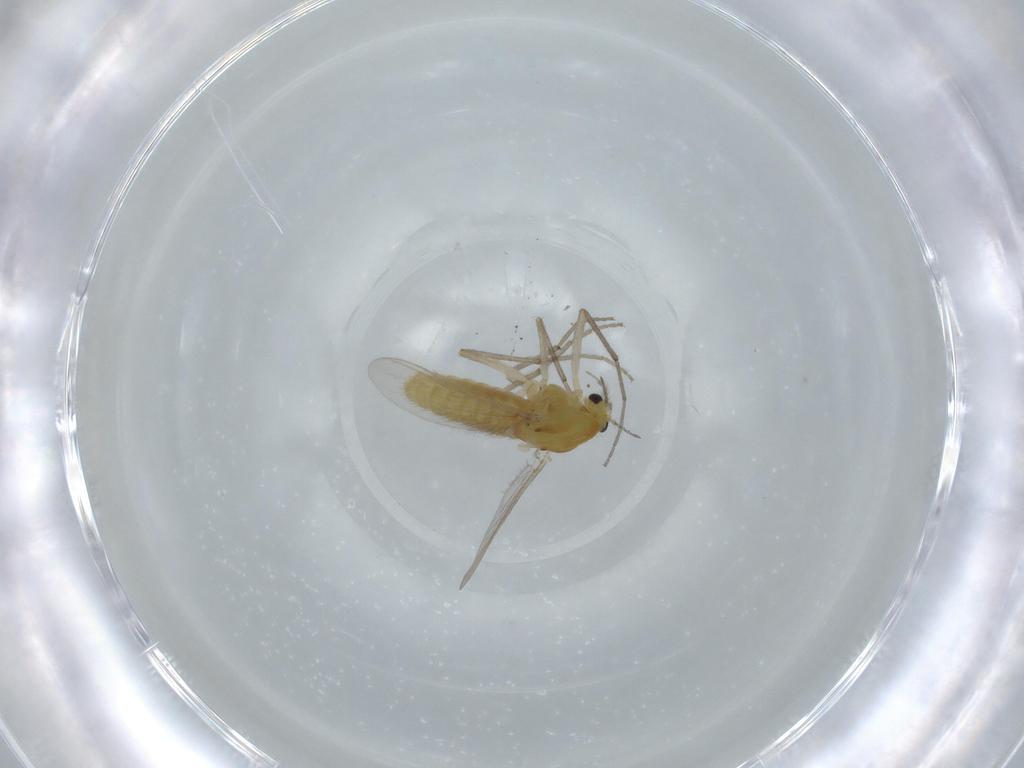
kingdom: Animalia
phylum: Arthropoda
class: Insecta
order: Diptera
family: Chironomidae
